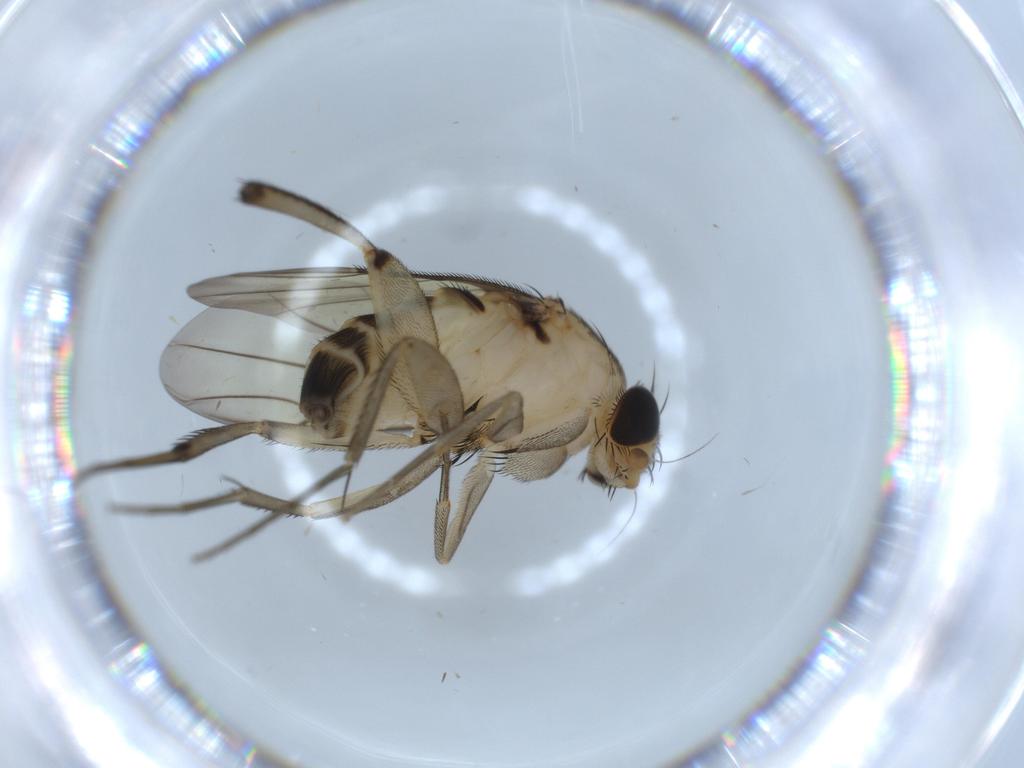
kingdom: Animalia
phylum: Arthropoda
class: Insecta
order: Diptera
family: Phoridae
